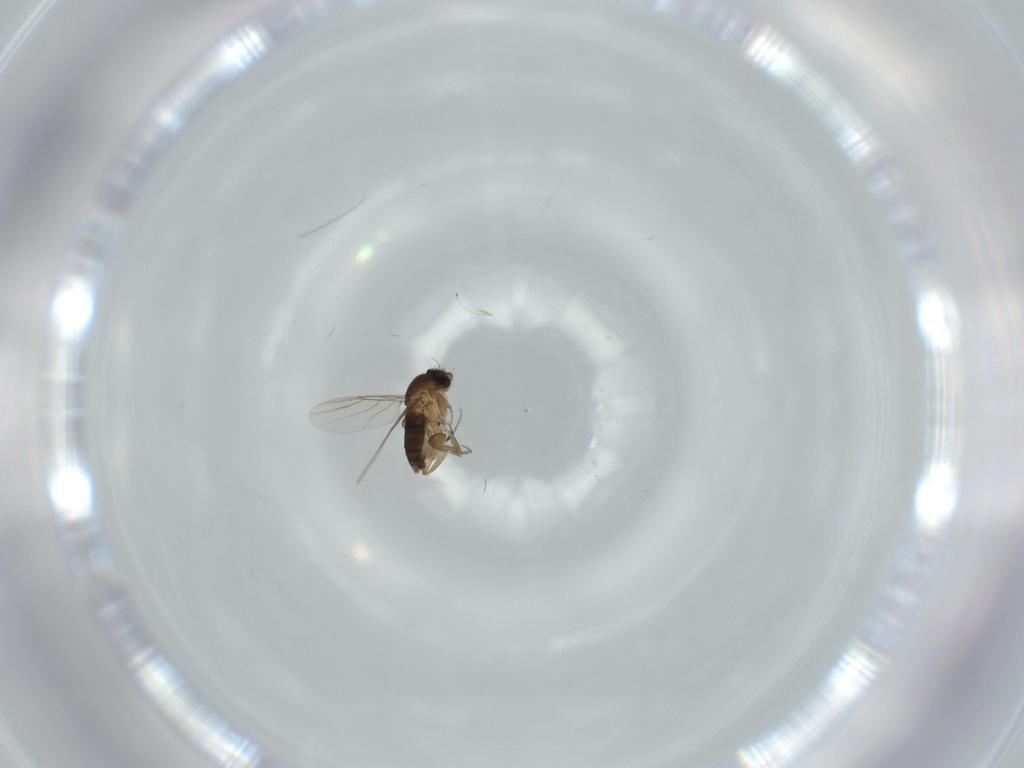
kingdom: Animalia
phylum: Arthropoda
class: Insecta
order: Diptera
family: Phoridae
